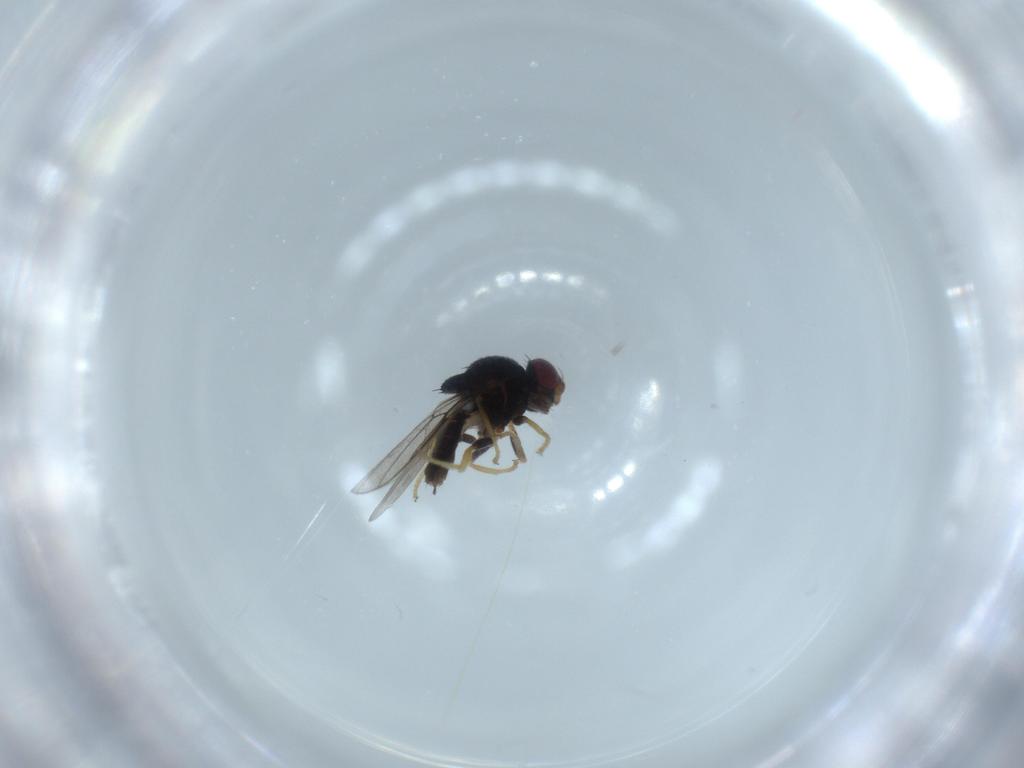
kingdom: Animalia
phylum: Arthropoda
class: Insecta
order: Diptera
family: Chloropidae
